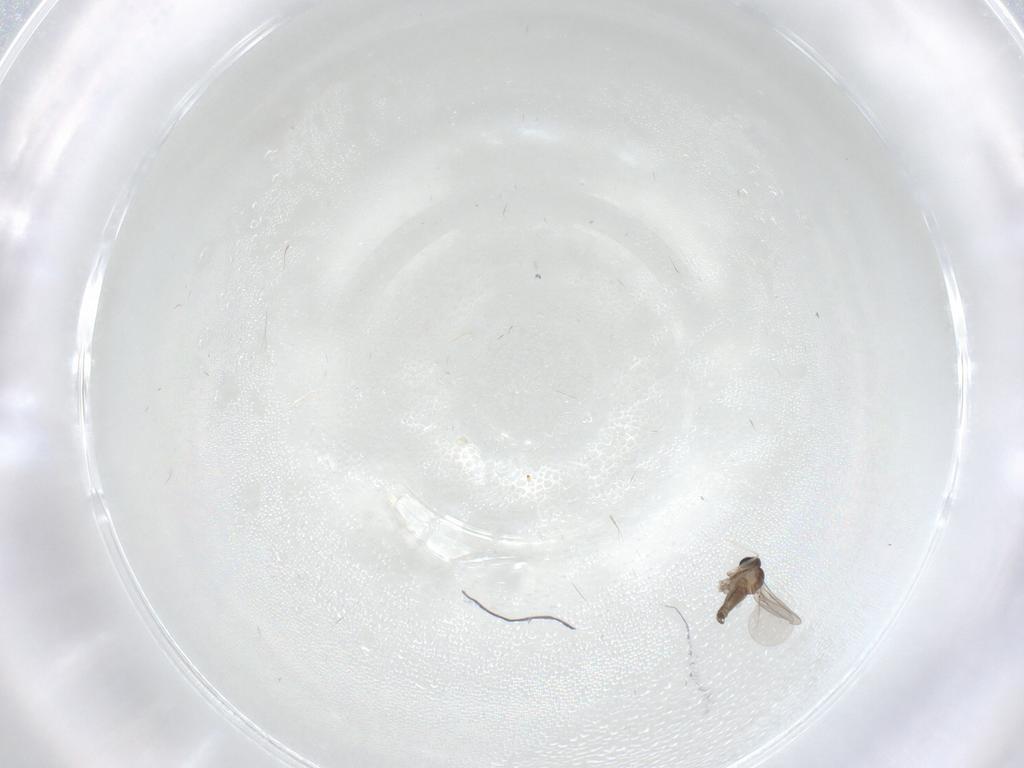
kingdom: Animalia
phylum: Arthropoda
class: Insecta
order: Diptera
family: Cecidomyiidae
